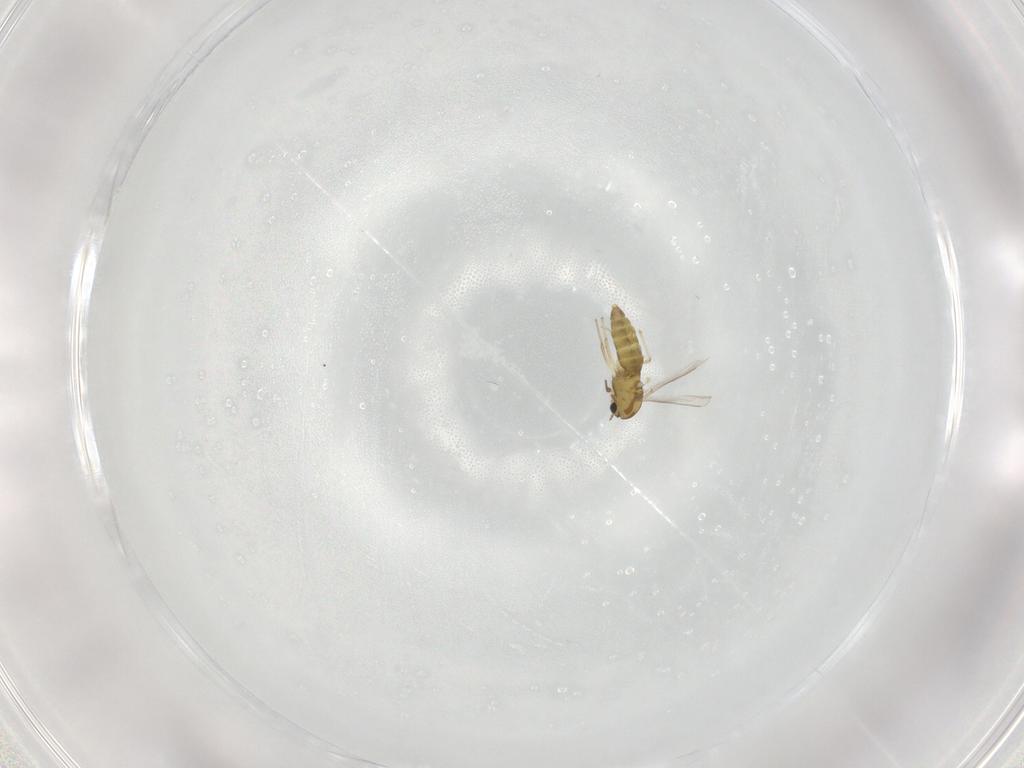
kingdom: Animalia
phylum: Arthropoda
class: Insecta
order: Diptera
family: Chironomidae
